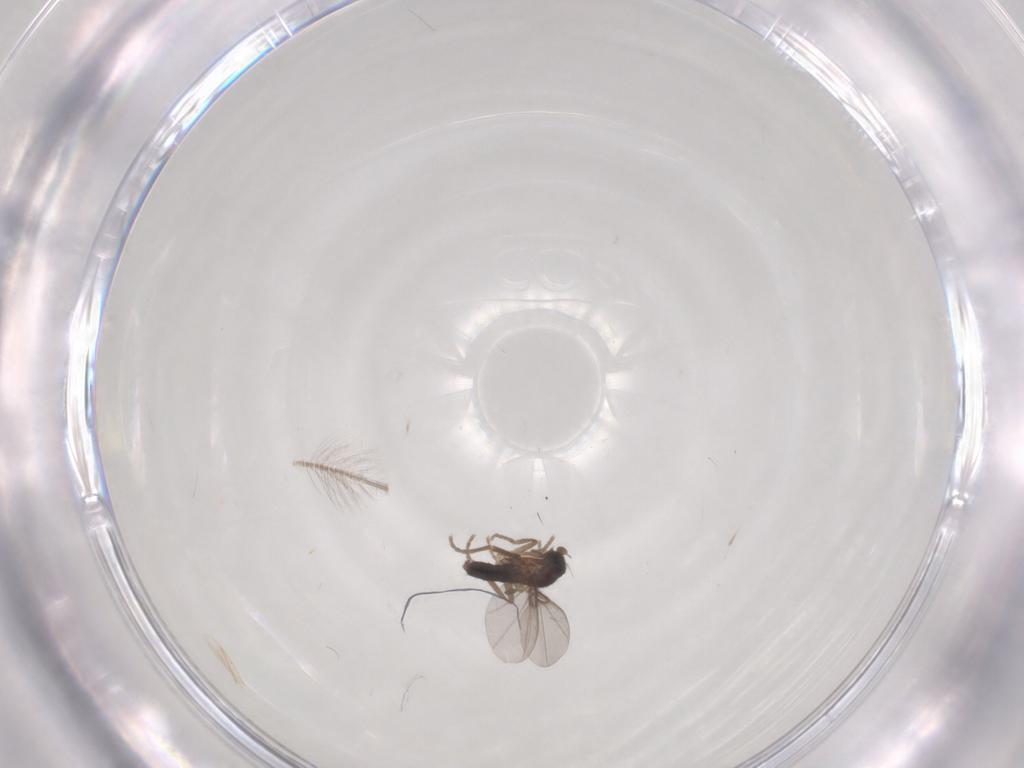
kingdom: Animalia
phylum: Arthropoda
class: Insecta
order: Diptera
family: Phoridae
